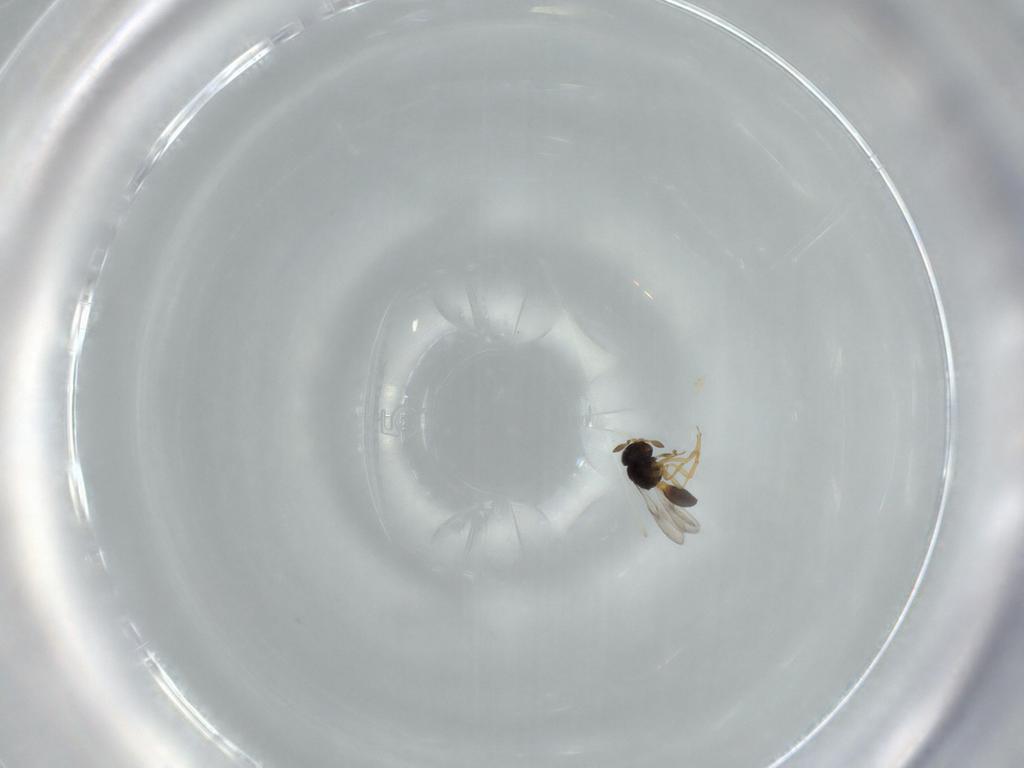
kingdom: Animalia
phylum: Arthropoda
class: Insecta
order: Hymenoptera
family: Scelionidae
